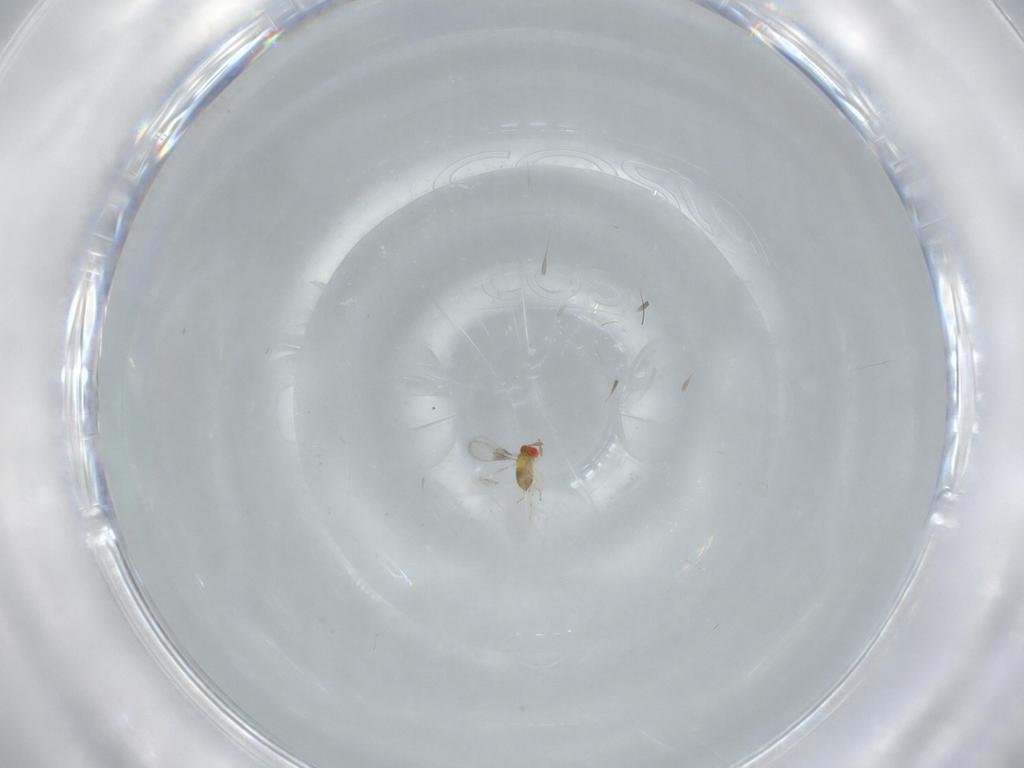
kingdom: Animalia
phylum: Arthropoda
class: Insecta
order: Hymenoptera
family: Trichogrammatidae
